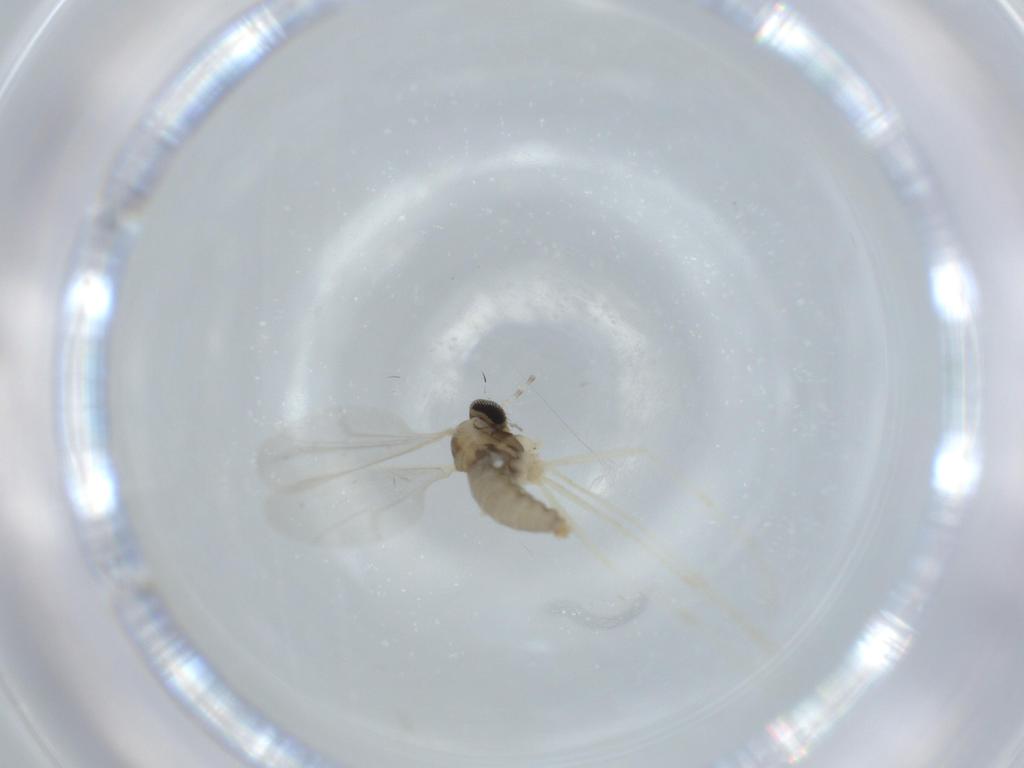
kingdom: Animalia
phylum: Arthropoda
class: Insecta
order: Diptera
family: Cecidomyiidae
